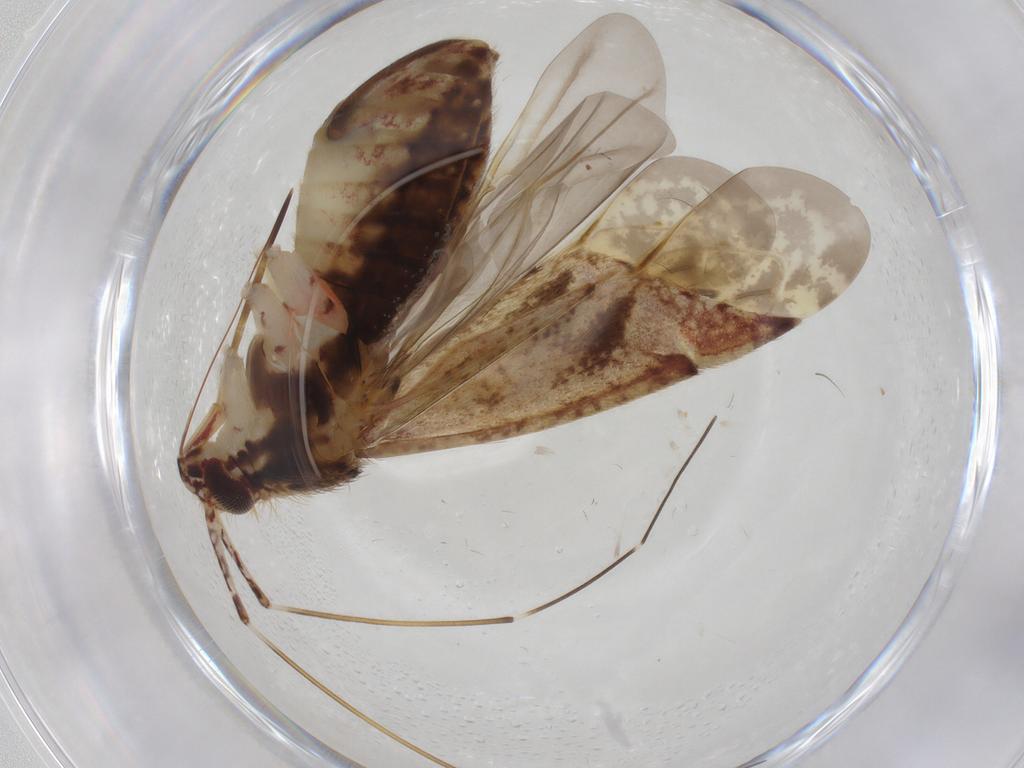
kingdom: Animalia
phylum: Arthropoda
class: Insecta
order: Hemiptera
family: Miridae
